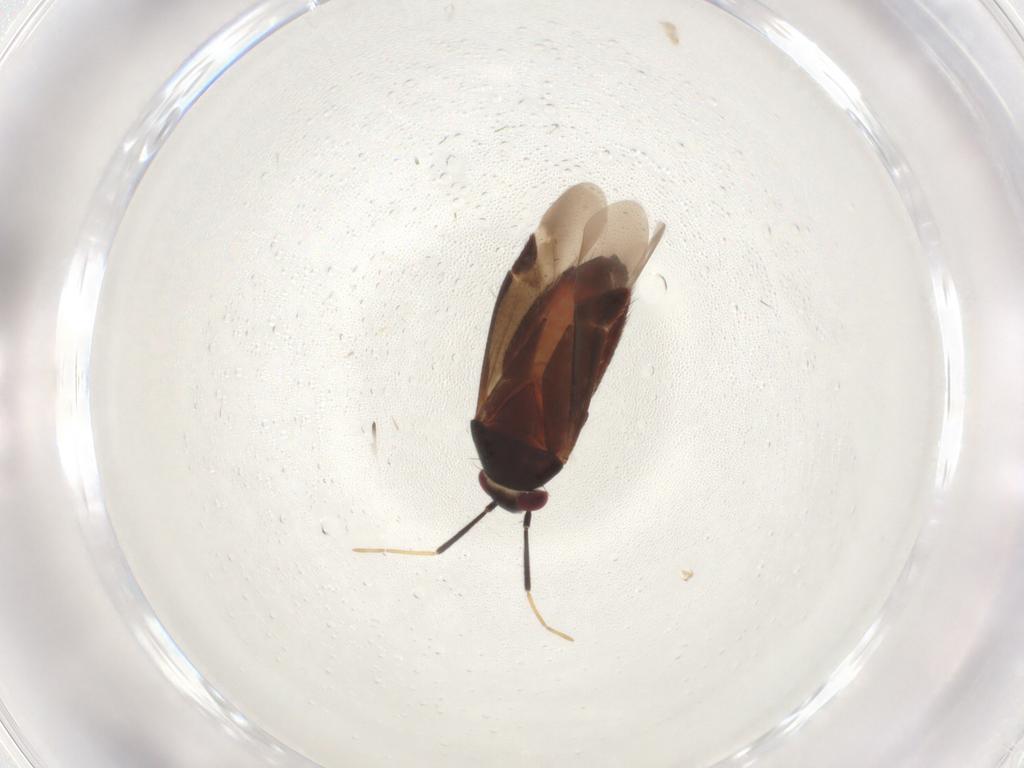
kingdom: Animalia
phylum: Arthropoda
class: Insecta
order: Hemiptera
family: Miridae
